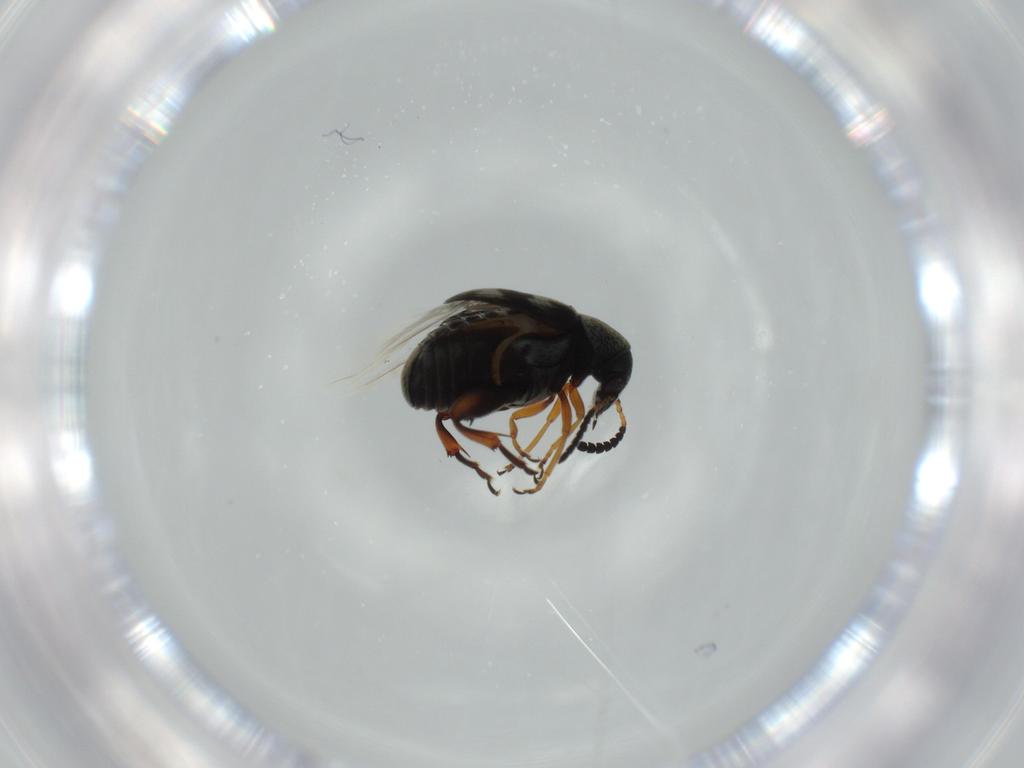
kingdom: Animalia
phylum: Arthropoda
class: Insecta
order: Coleoptera
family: Chrysomelidae
